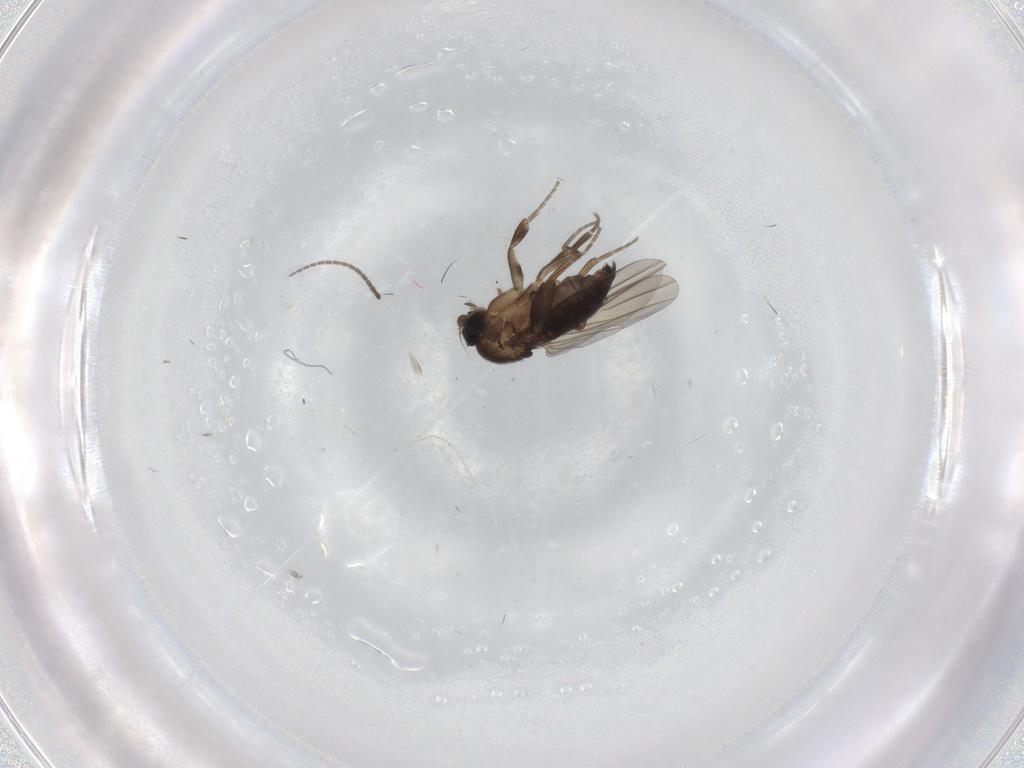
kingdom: Animalia
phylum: Arthropoda
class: Insecta
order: Diptera
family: Phoridae
